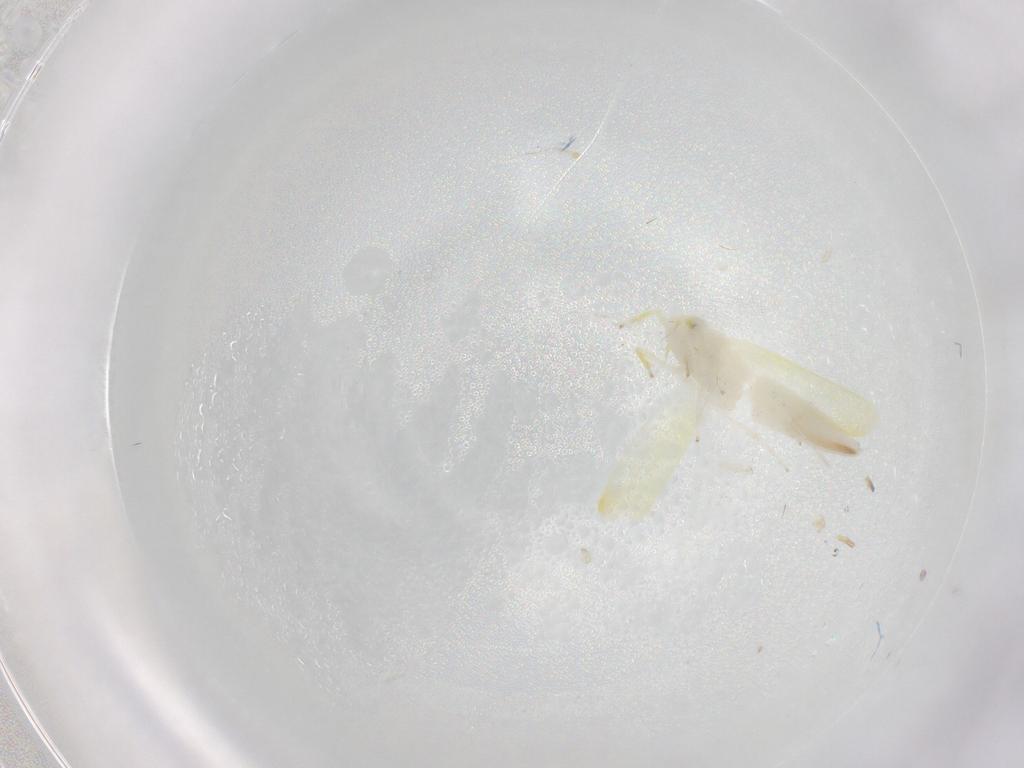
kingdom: Animalia
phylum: Arthropoda
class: Insecta
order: Hemiptera
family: Cicadellidae
